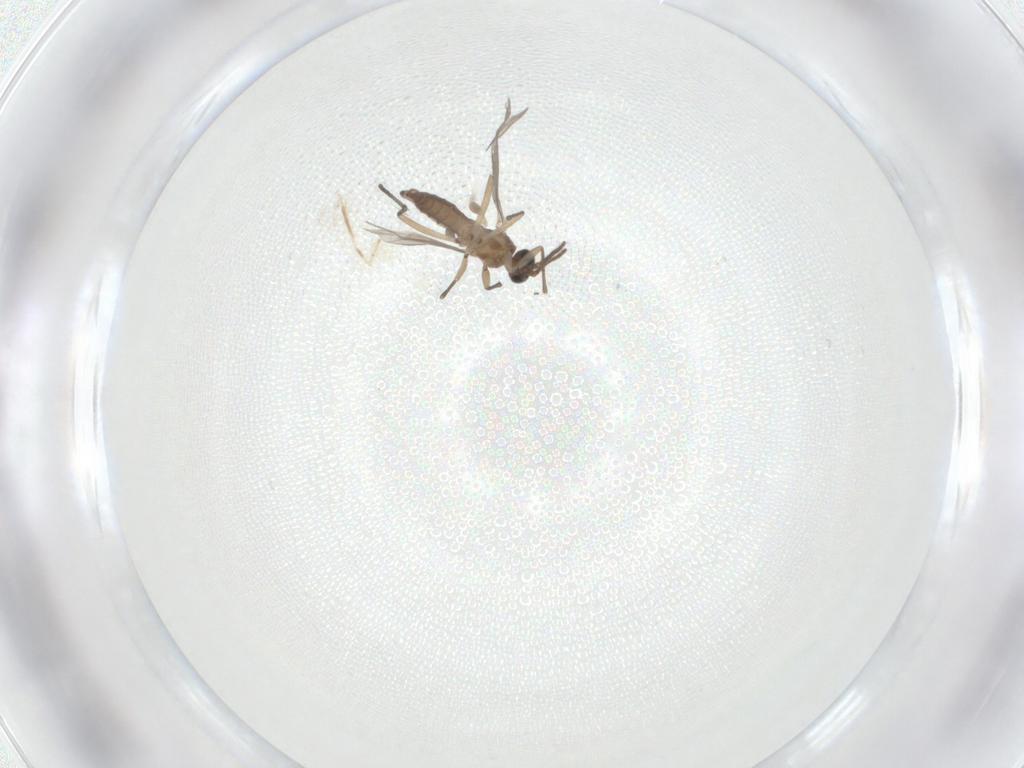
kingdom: Animalia
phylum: Arthropoda
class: Insecta
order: Diptera
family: Sciaridae
